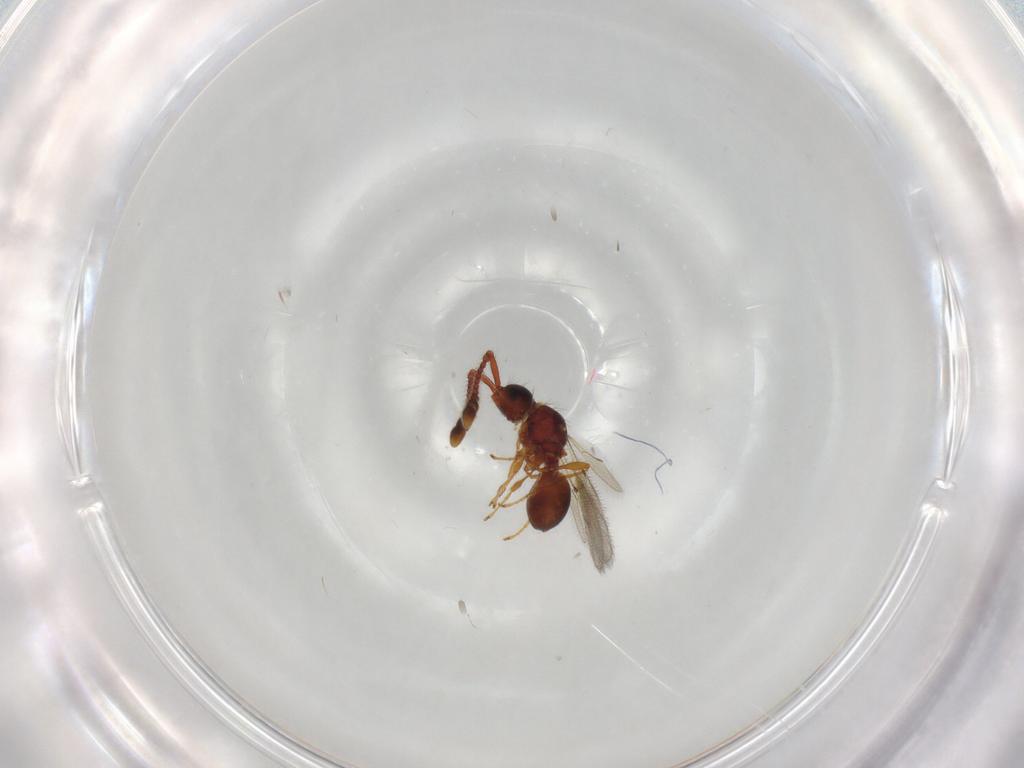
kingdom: Animalia
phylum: Arthropoda
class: Insecta
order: Hymenoptera
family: Diapriidae
